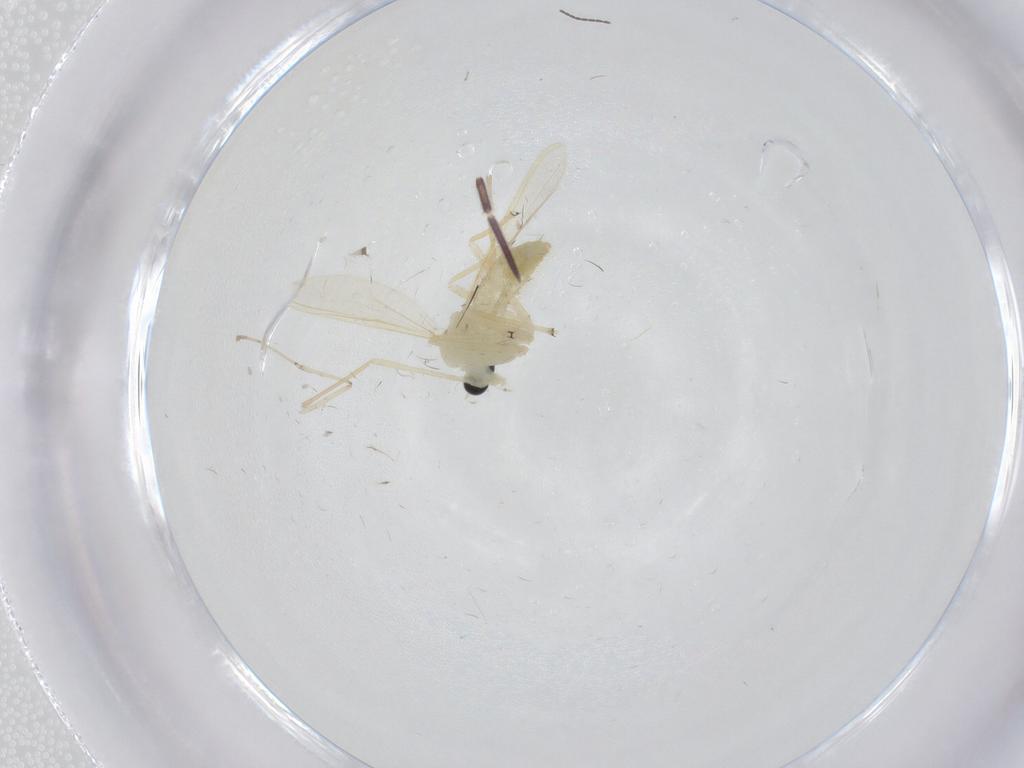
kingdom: Animalia
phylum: Arthropoda
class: Insecta
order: Diptera
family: Chironomidae
